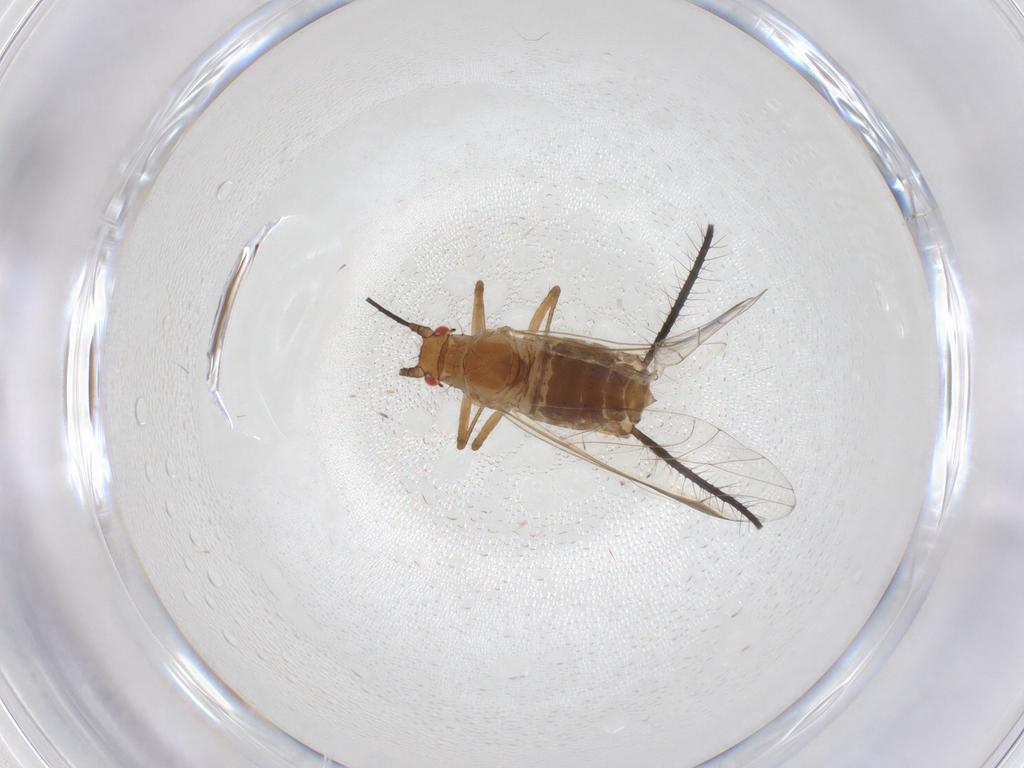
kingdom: Animalia
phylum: Arthropoda
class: Insecta
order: Hemiptera
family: Aphididae
